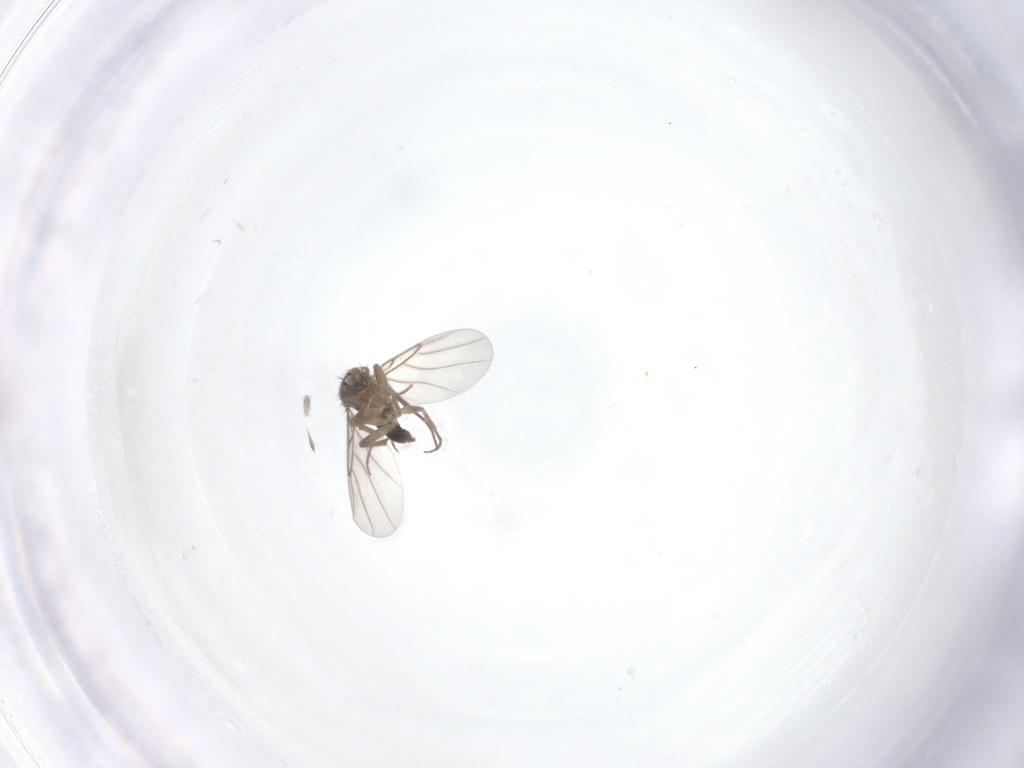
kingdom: Animalia
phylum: Arthropoda
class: Insecta
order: Diptera
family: Phoridae
